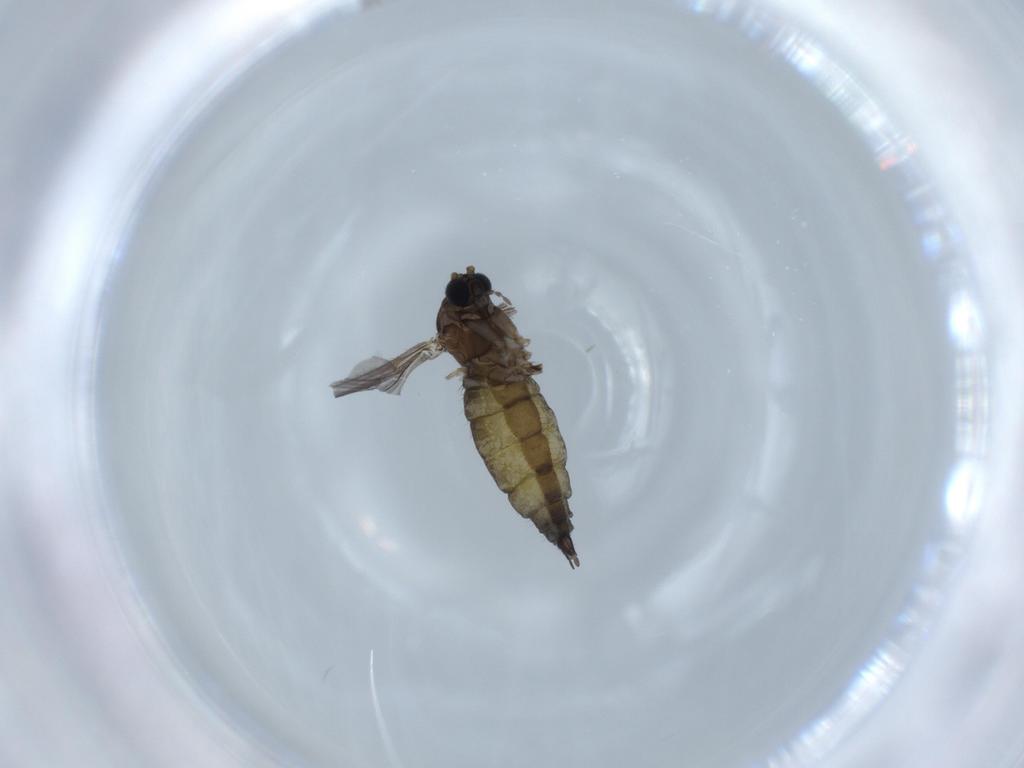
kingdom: Animalia
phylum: Arthropoda
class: Insecta
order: Diptera
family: Sciaridae
